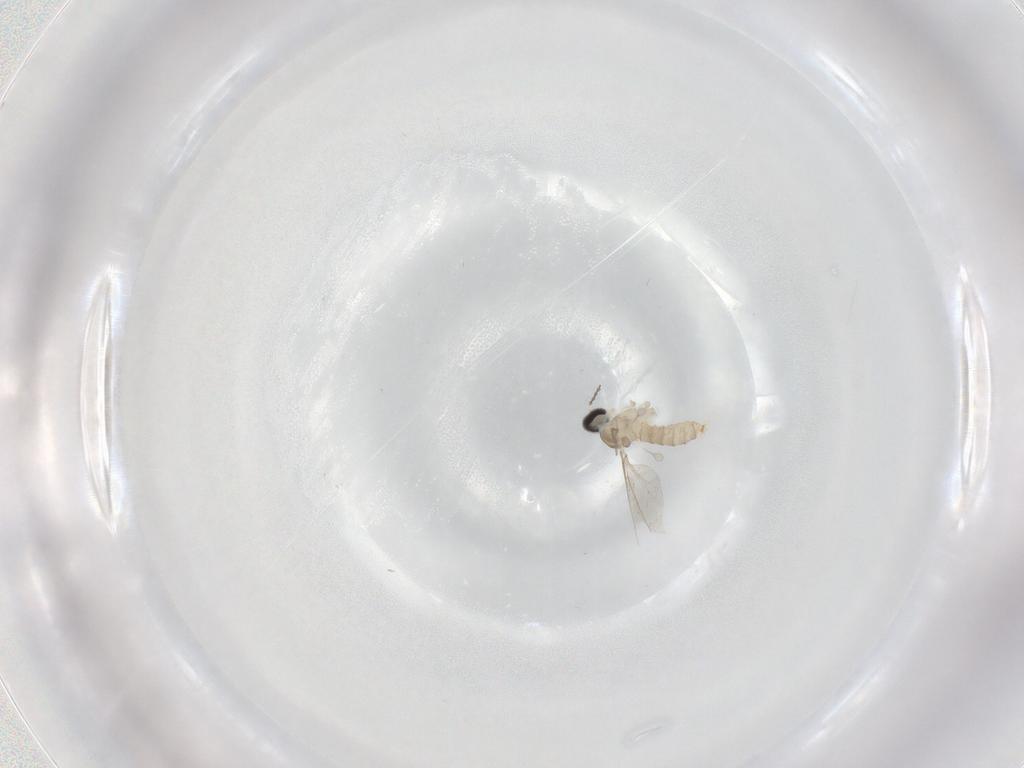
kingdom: Animalia
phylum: Arthropoda
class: Insecta
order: Diptera
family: Cecidomyiidae
